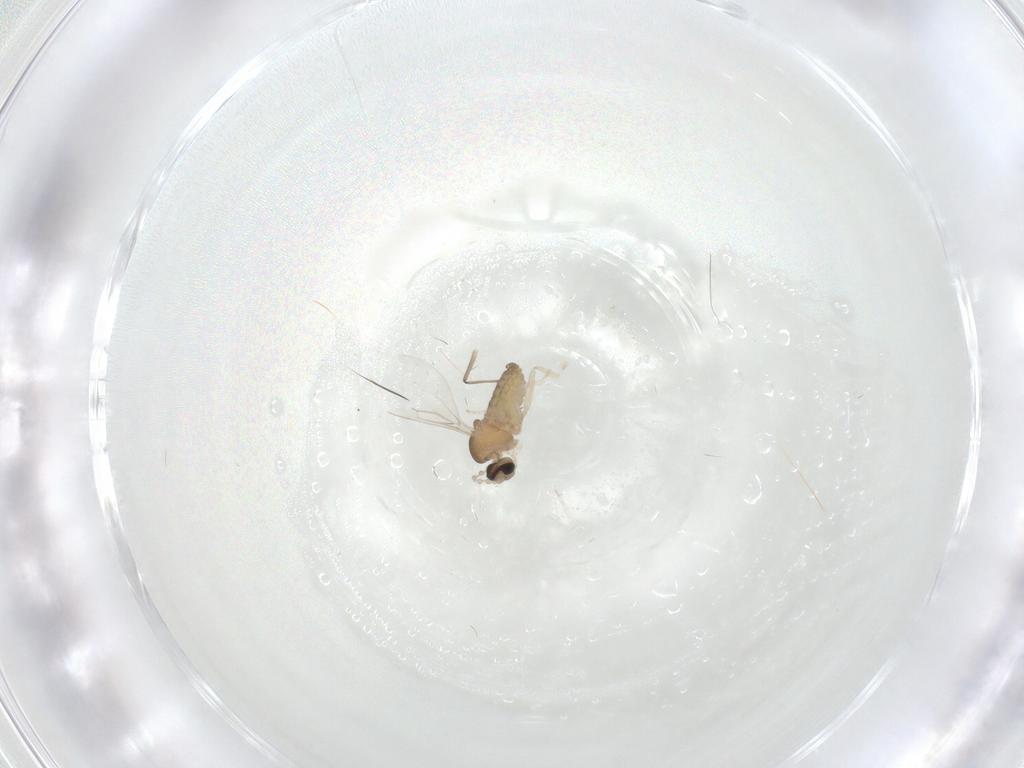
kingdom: Animalia
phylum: Arthropoda
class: Insecta
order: Diptera
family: Cecidomyiidae
